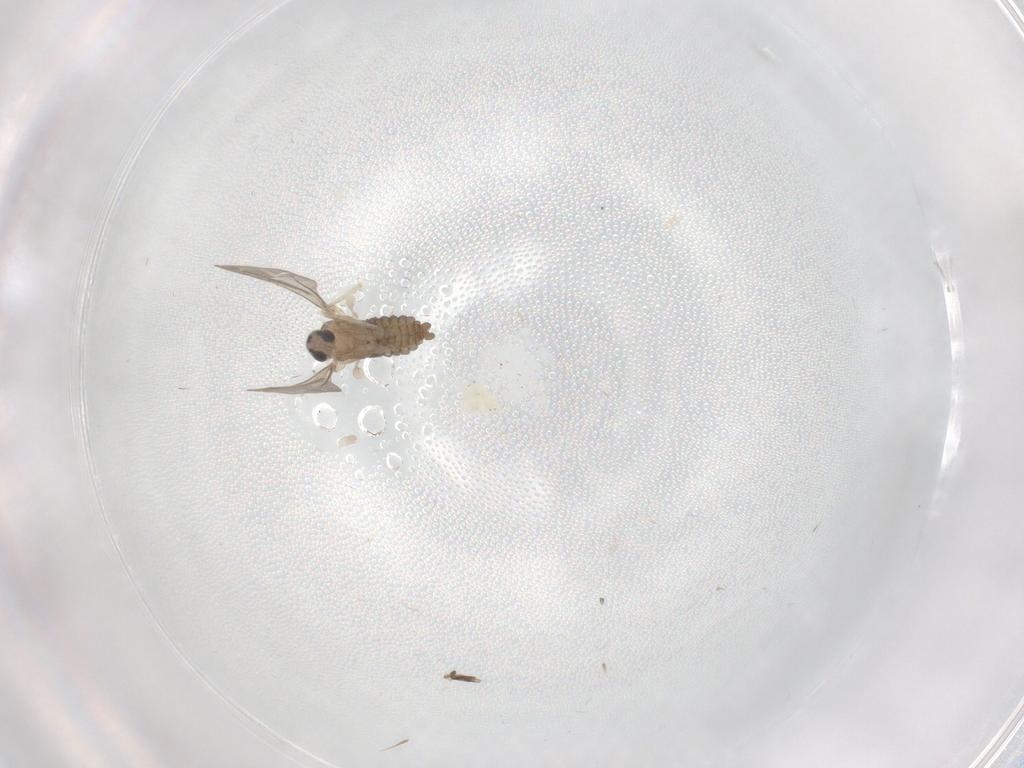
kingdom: Animalia
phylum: Arthropoda
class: Insecta
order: Diptera
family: Cecidomyiidae
